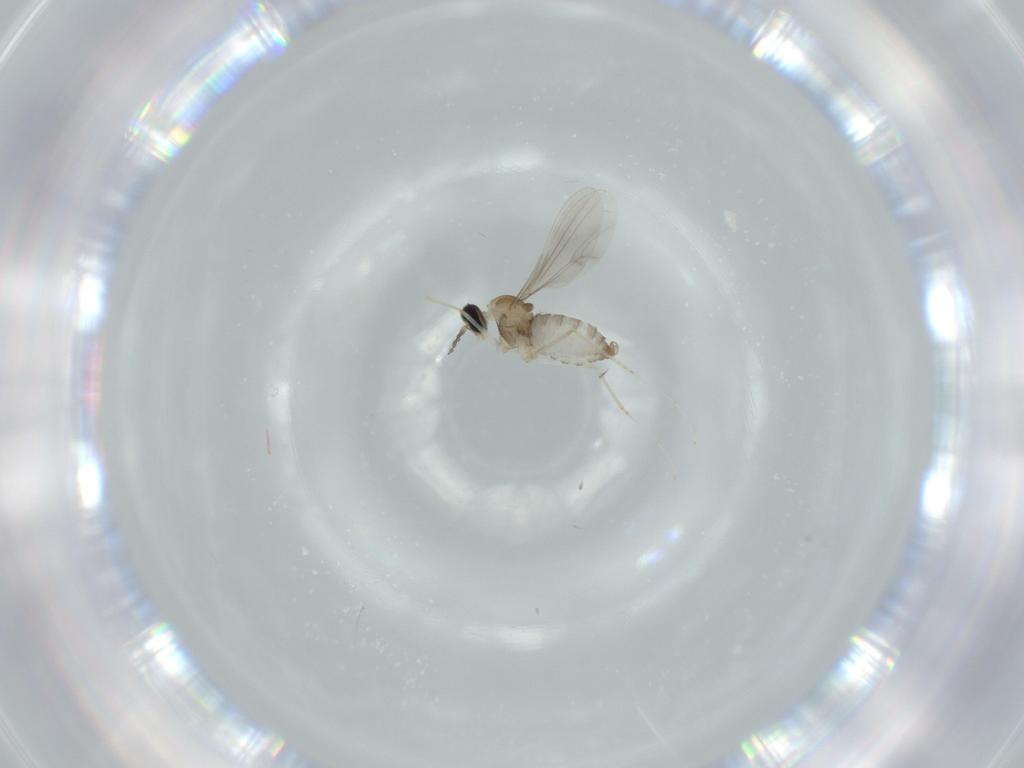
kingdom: Animalia
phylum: Arthropoda
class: Insecta
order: Diptera
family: Cecidomyiidae
